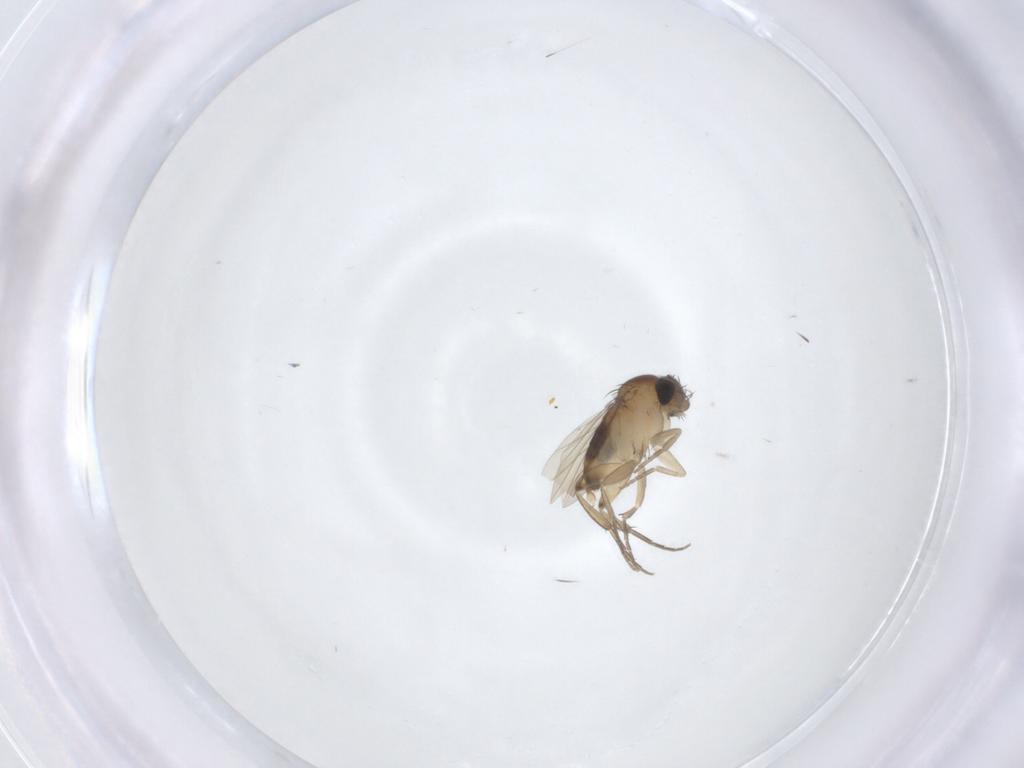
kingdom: Animalia
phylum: Arthropoda
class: Insecta
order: Diptera
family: Phoridae
